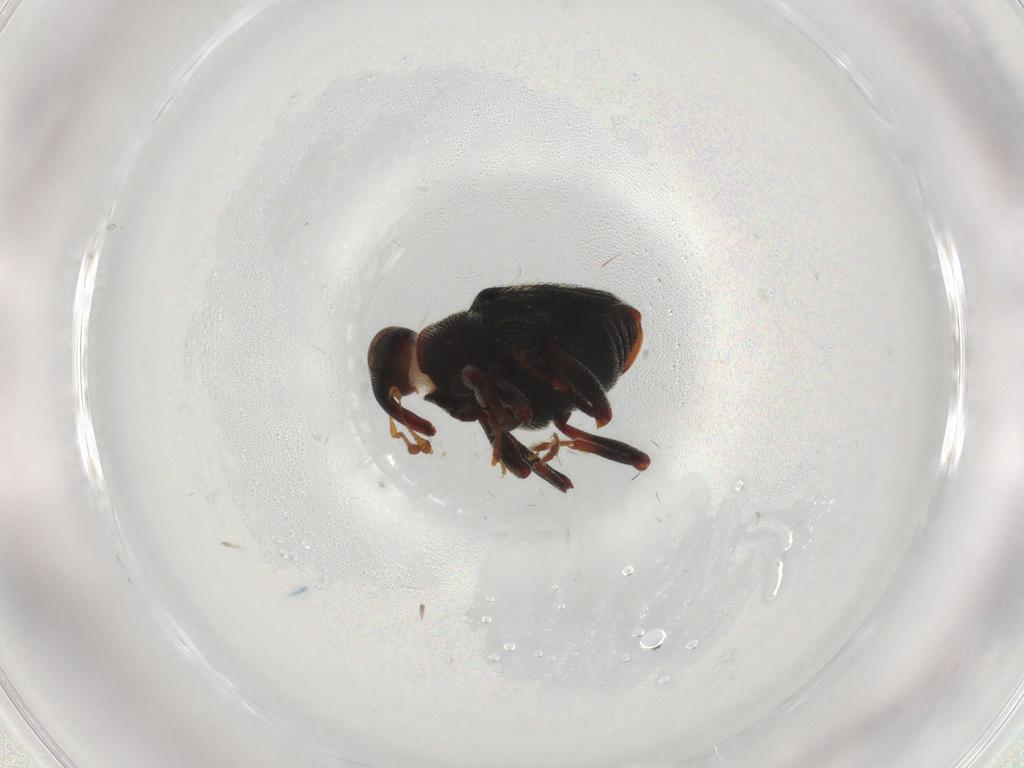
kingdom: Animalia
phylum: Arthropoda
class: Insecta
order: Coleoptera
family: Curculionidae
